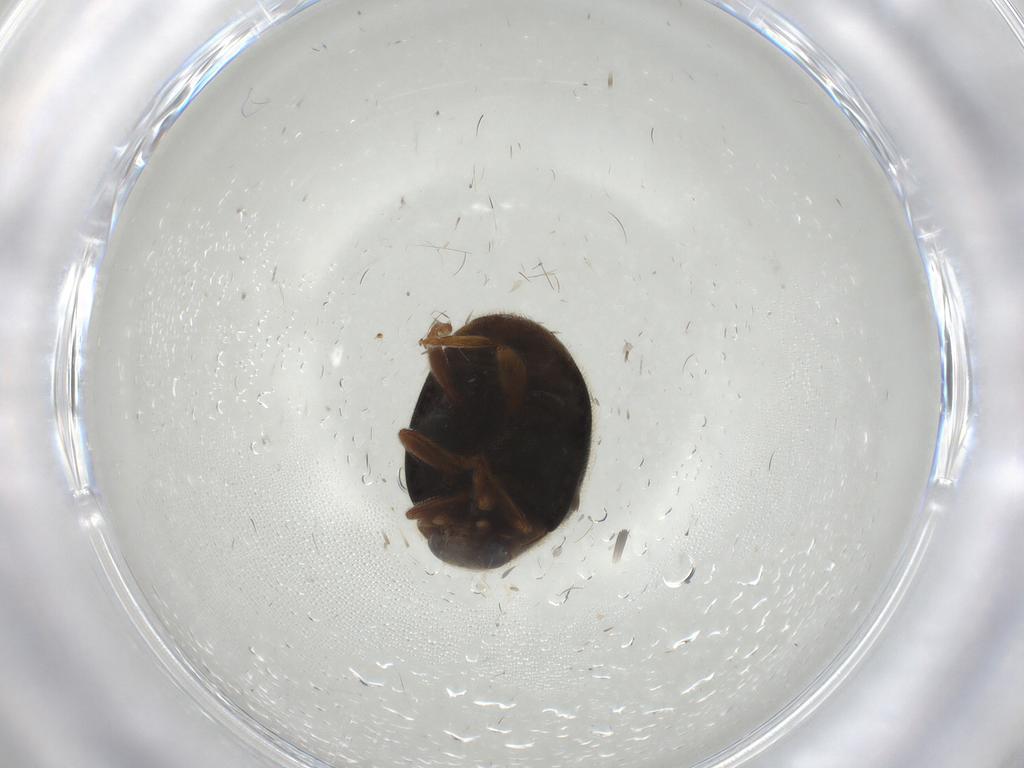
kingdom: Animalia
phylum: Arthropoda
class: Insecta
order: Coleoptera
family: Coccinellidae
